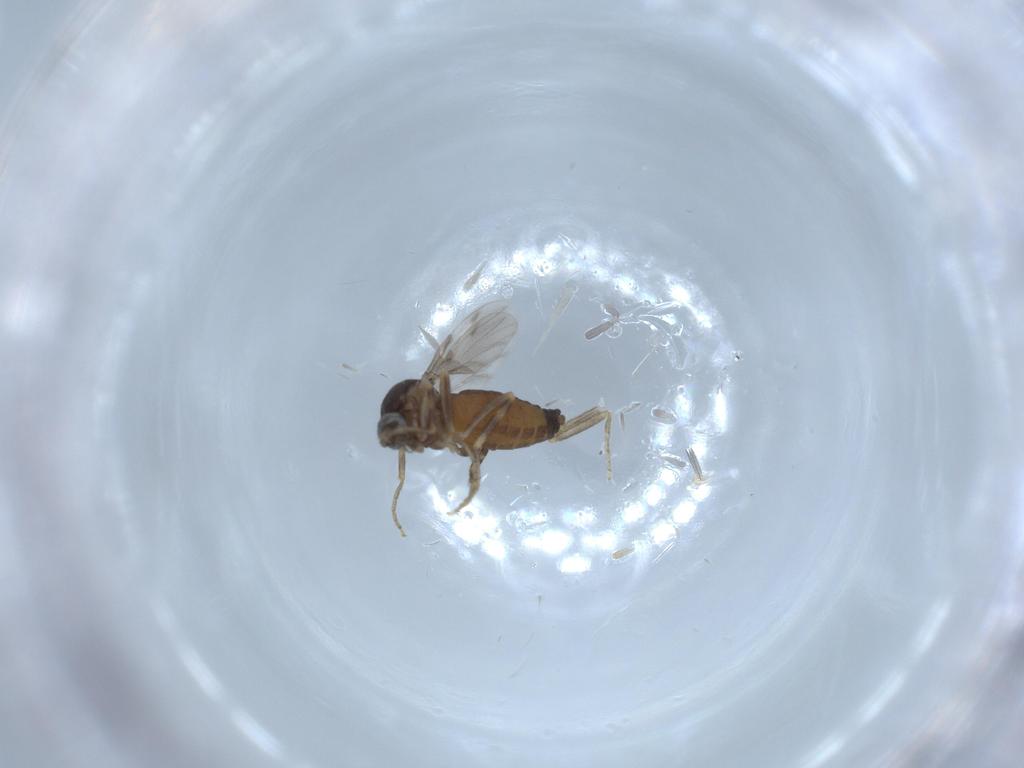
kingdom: Animalia
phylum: Arthropoda
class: Insecta
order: Diptera
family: Ceratopogonidae
